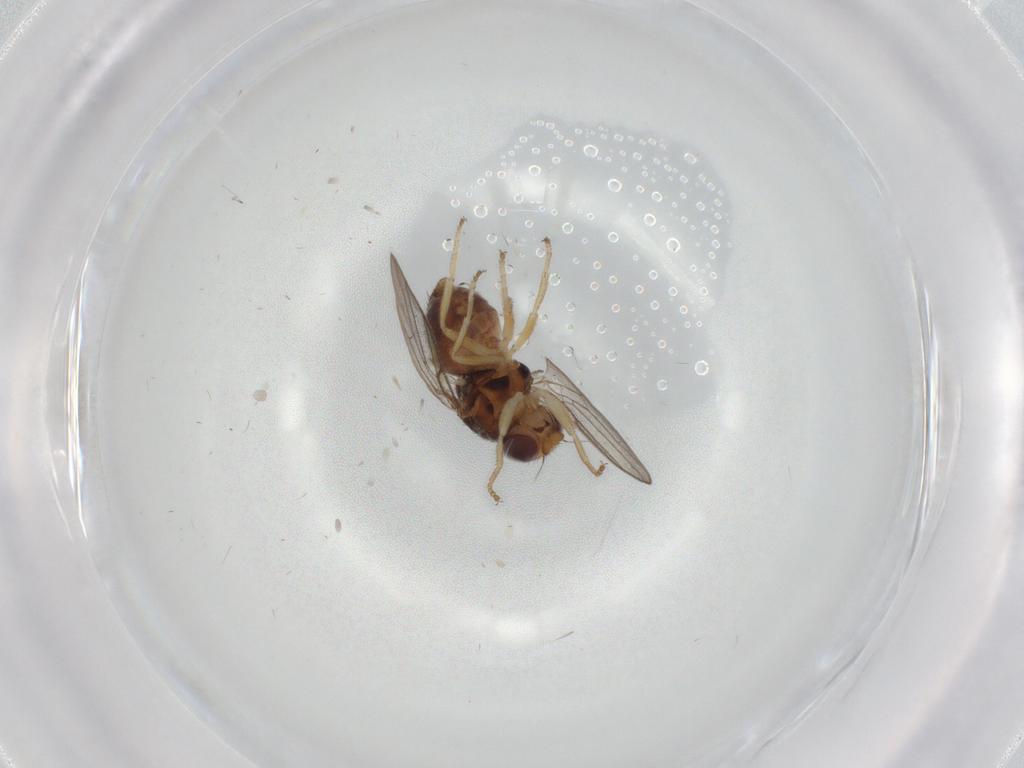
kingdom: Animalia
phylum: Arthropoda
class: Insecta
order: Diptera
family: Chloropidae
